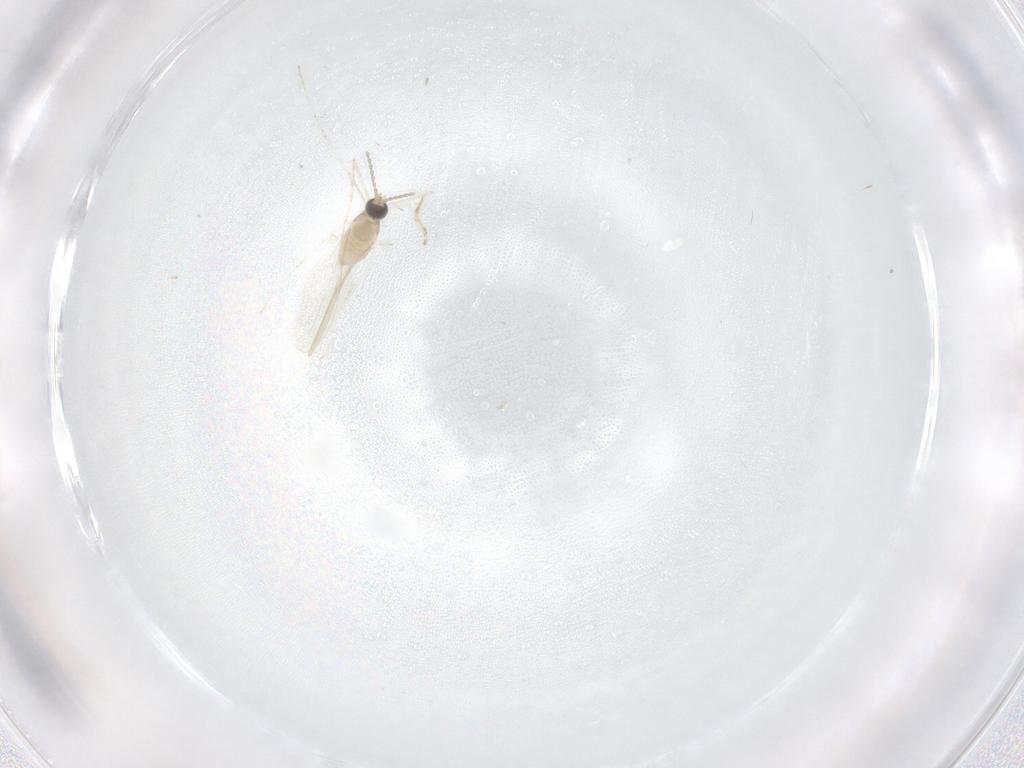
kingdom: Animalia
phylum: Arthropoda
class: Insecta
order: Diptera
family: Cecidomyiidae
